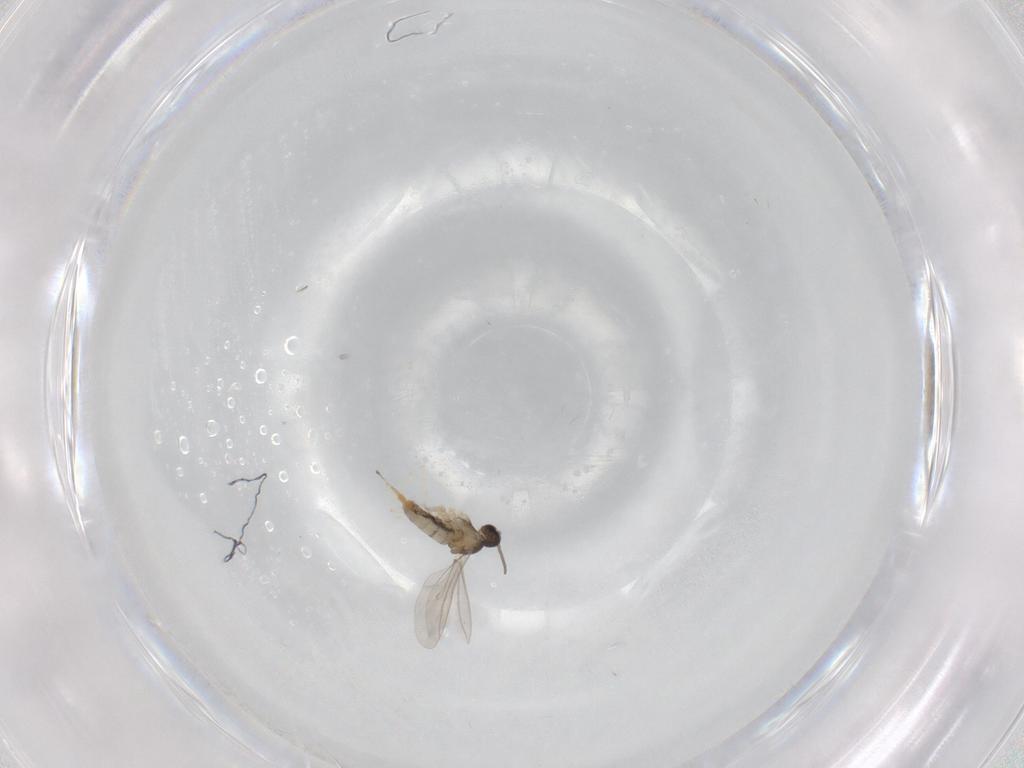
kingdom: Animalia
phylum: Arthropoda
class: Insecta
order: Diptera
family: Cecidomyiidae
